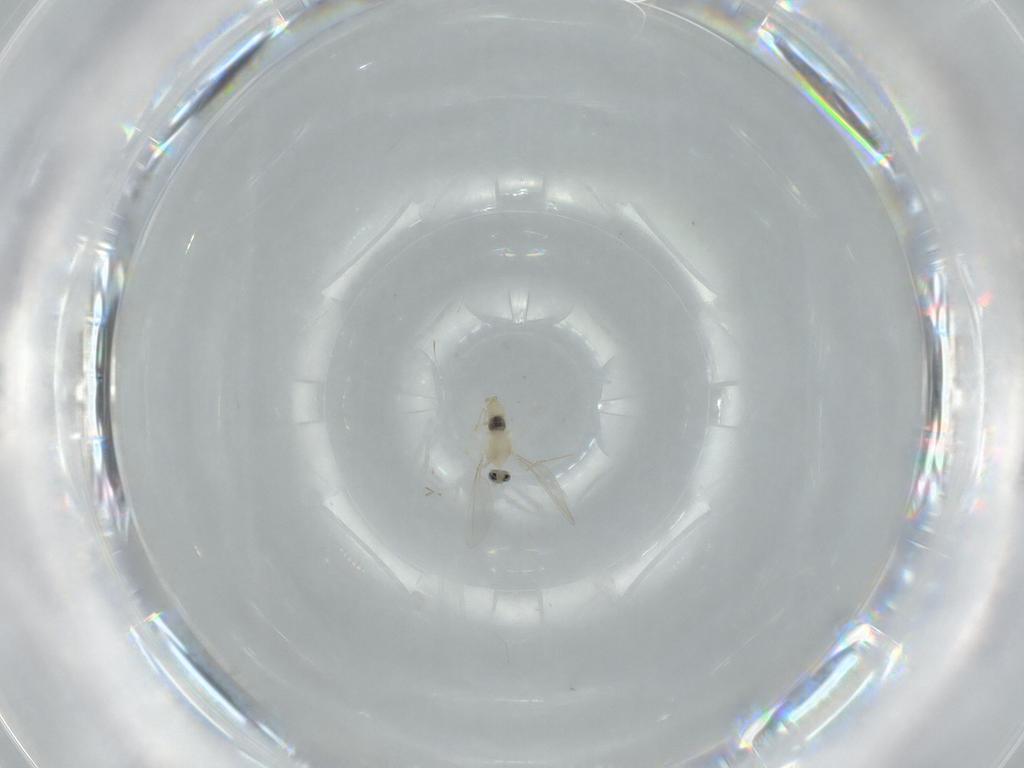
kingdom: Animalia
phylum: Arthropoda
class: Insecta
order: Diptera
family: Cecidomyiidae
